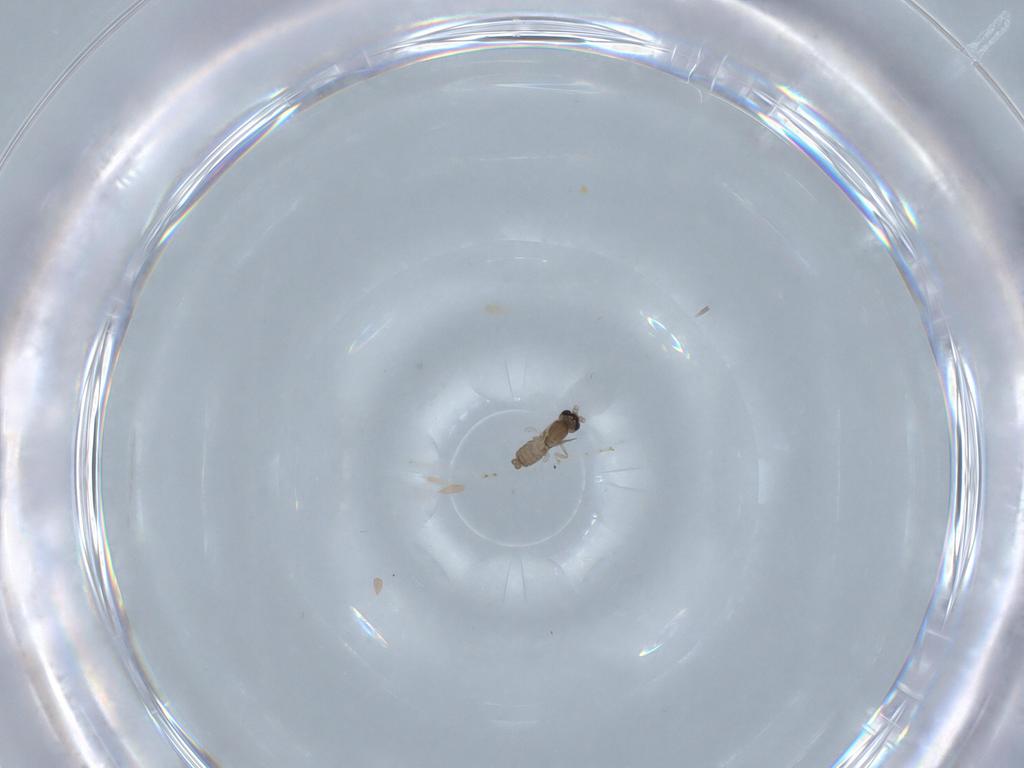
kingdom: Animalia
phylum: Arthropoda
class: Insecta
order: Diptera
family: Cecidomyiidae
